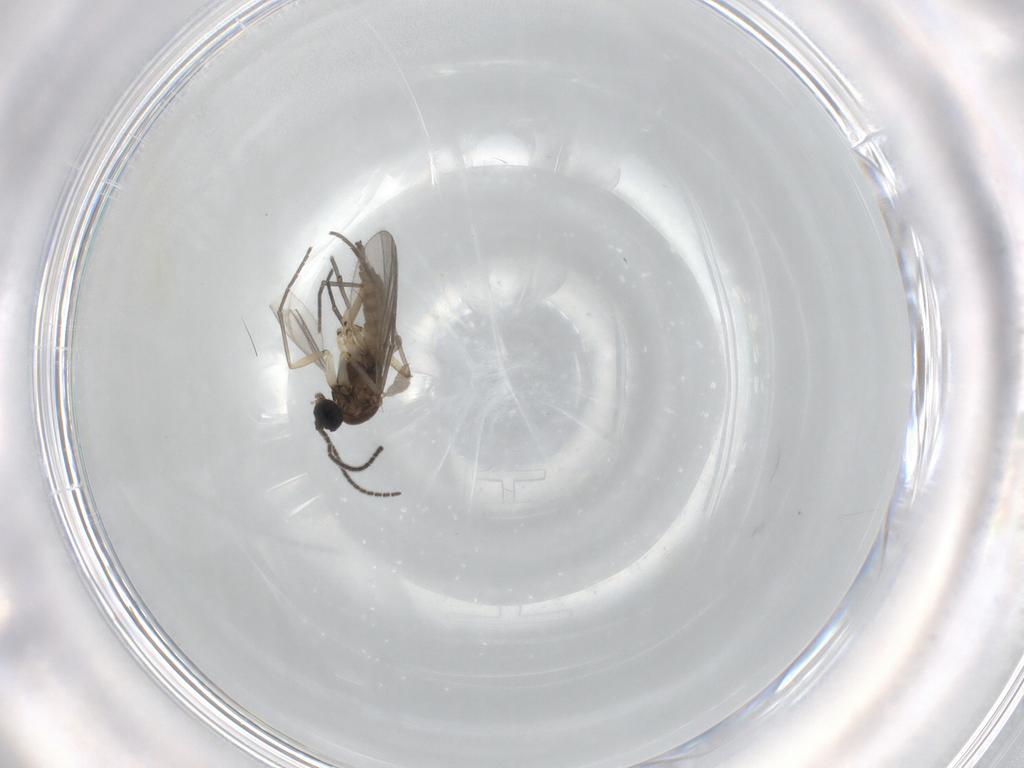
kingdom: Animalia
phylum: Arthropoda
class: Insecta
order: Diptera
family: Sciaridae
